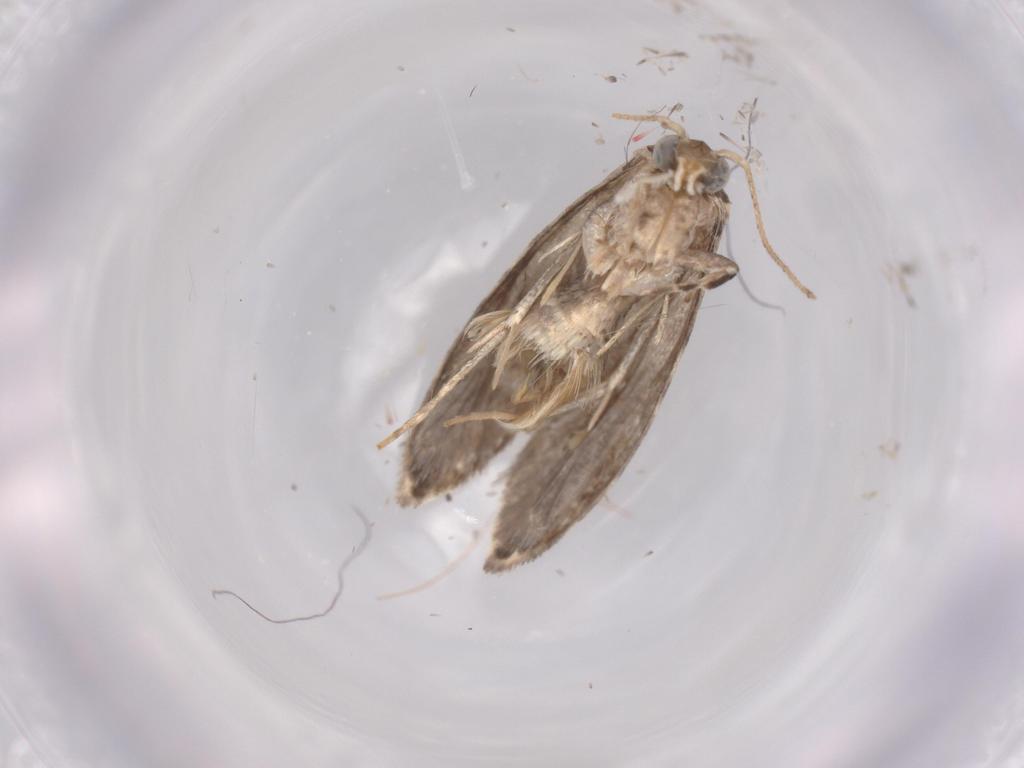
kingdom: Animalia
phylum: Arthropoda
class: Insecta
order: Lepidoptera
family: Tineidae
